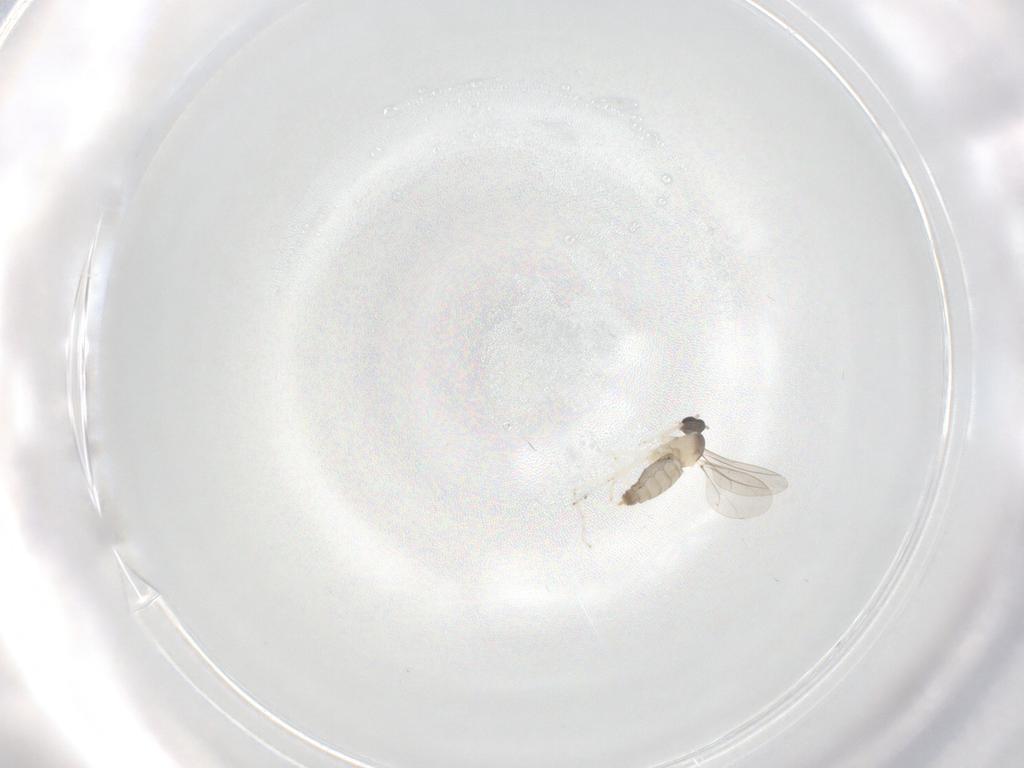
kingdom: Animalia
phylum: Arthropoda
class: Insecta
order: Diptera
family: Cecidomyiidae
